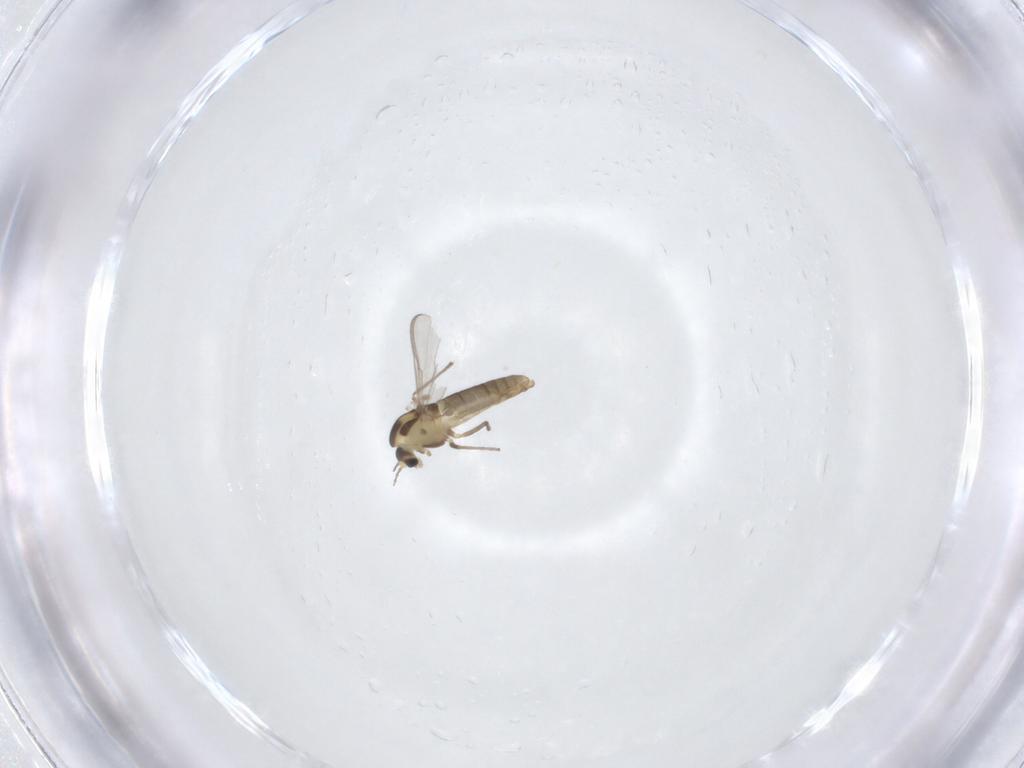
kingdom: Animalia
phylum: Arthropoda
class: Insecta
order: Diptera
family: Chironomidae
